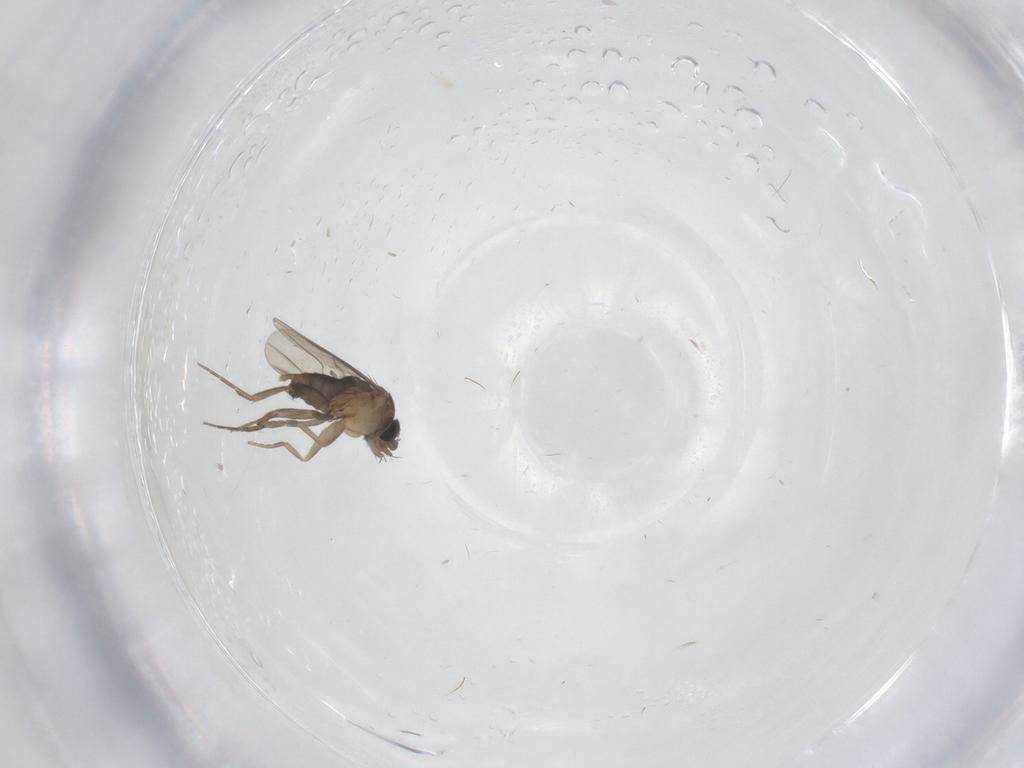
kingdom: Animalia
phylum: Arthropoda
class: Insecta
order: Diptera
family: Phoridae
